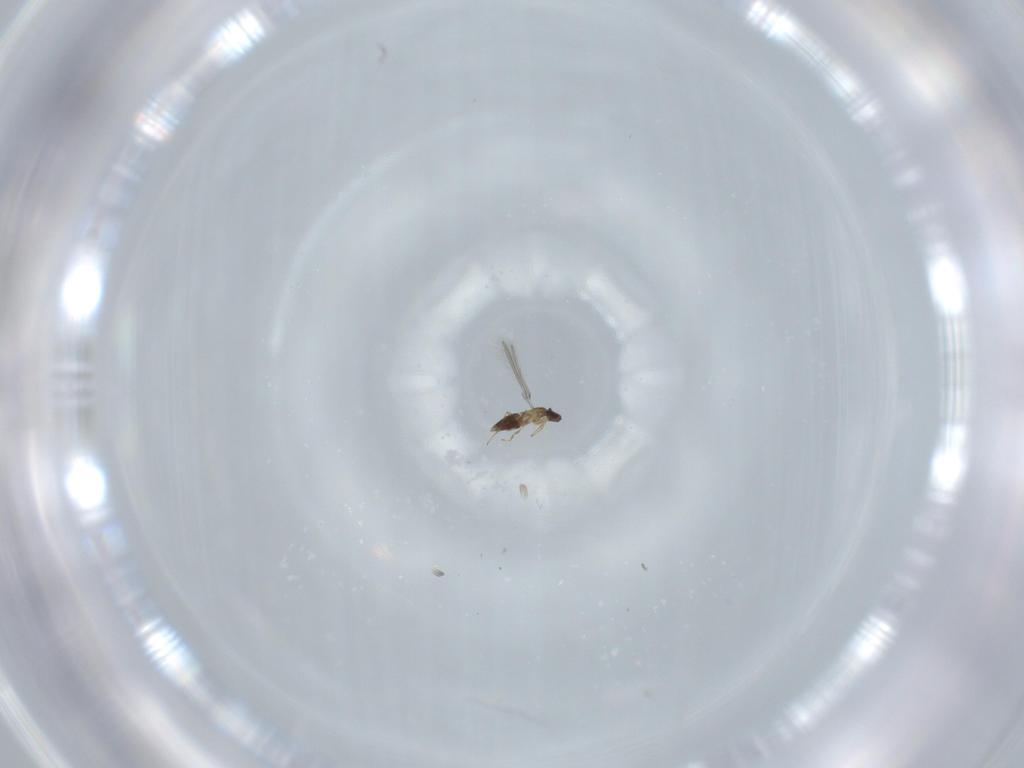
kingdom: Animalia
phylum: Arthropoda
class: Insecta
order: Hymenoptera
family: Mymaridae
